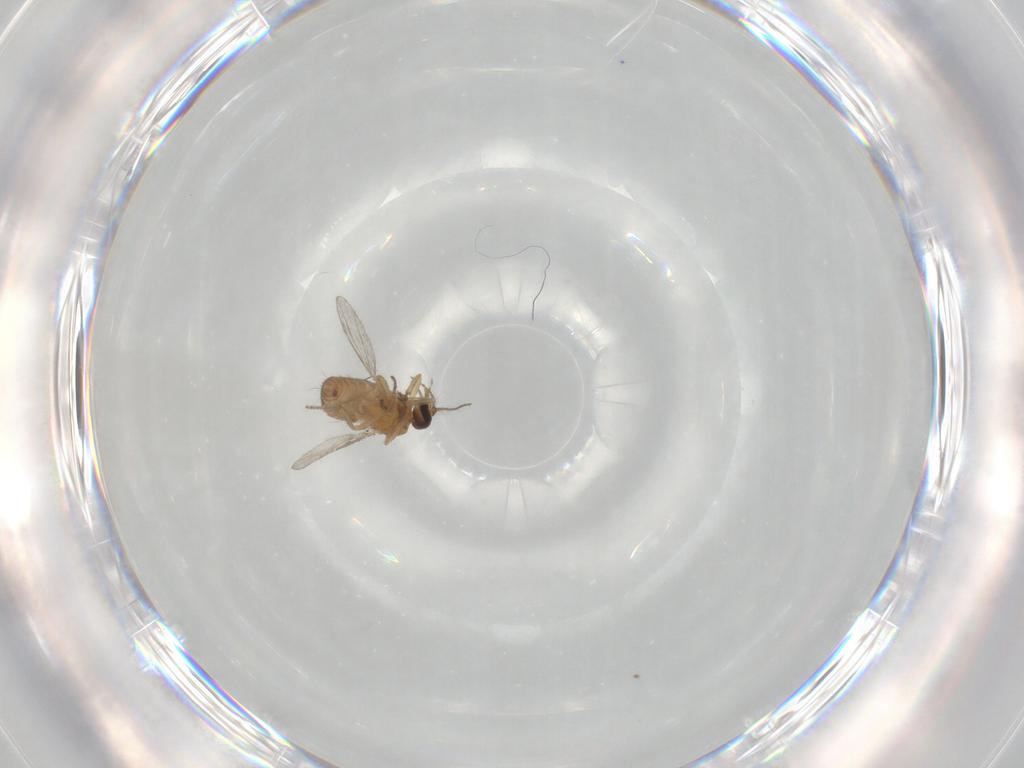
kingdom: Animalia
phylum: Arthropoda
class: Insecta
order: Diptera
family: Ceratopogonidae
